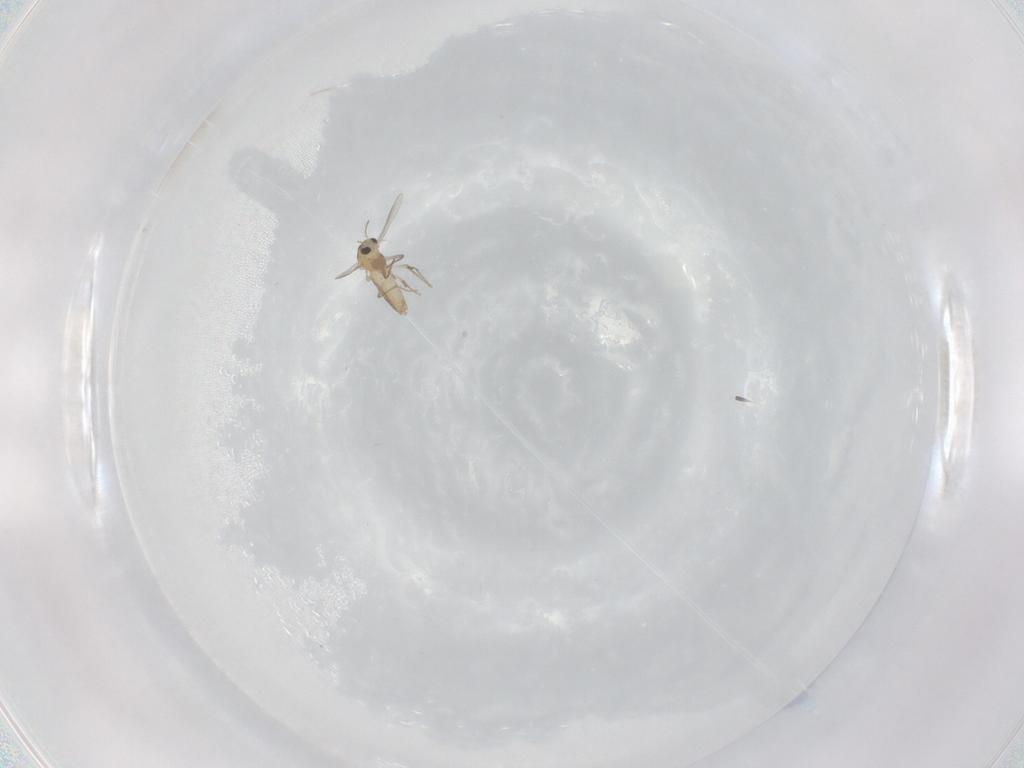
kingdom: Animalia
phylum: Arthropoda
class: Insecta
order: Diptera
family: Chironomidae
